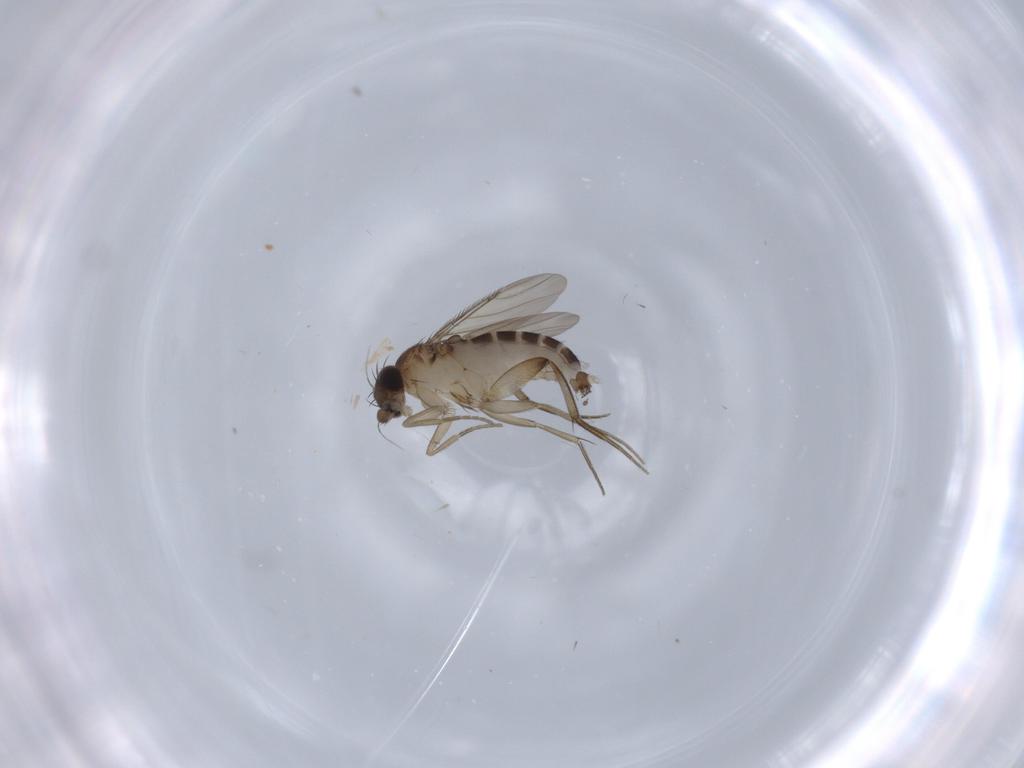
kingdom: Animalia
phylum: Arthropoda
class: Insecta
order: Diptera
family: Phoridae
